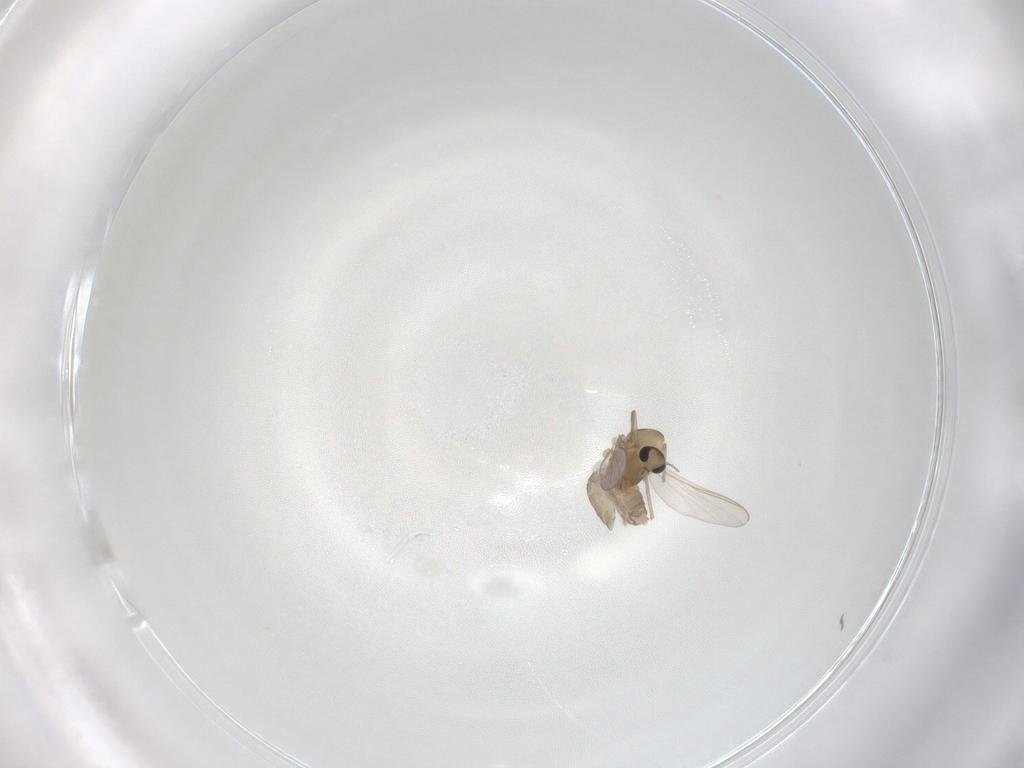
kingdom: Animalia
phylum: Arthropoda
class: Insecta
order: Diptera
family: Chironomidae
